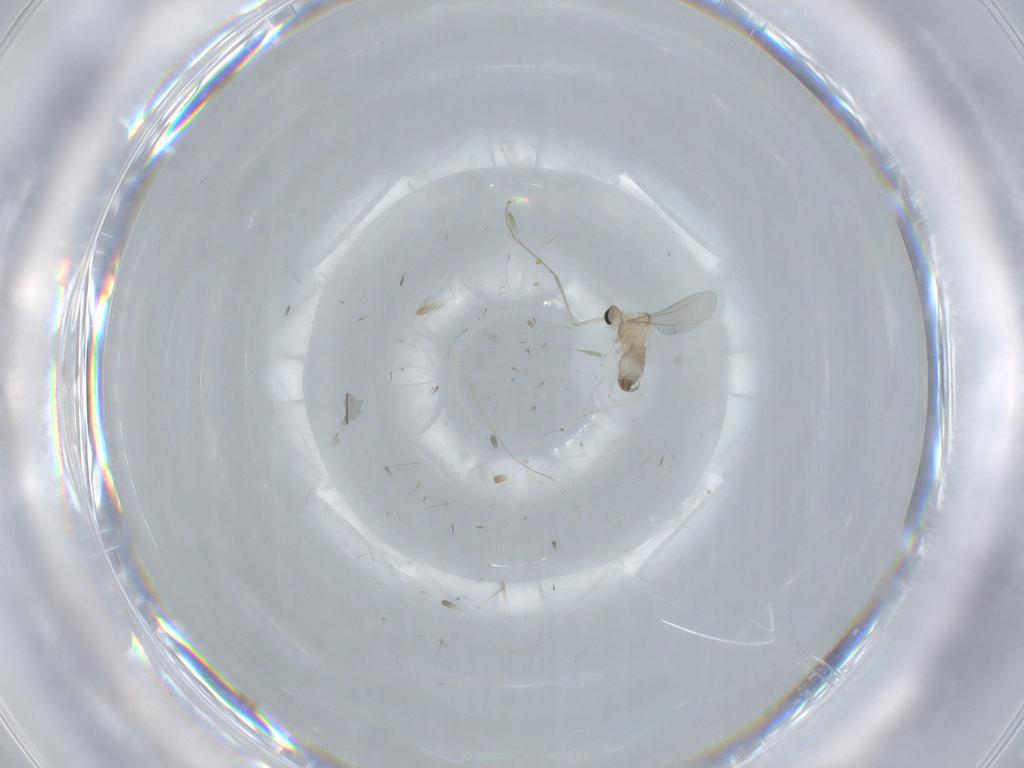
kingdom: Animalia
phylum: Arthropoda
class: Insecta
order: Diptera
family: Cecidomyiidae
